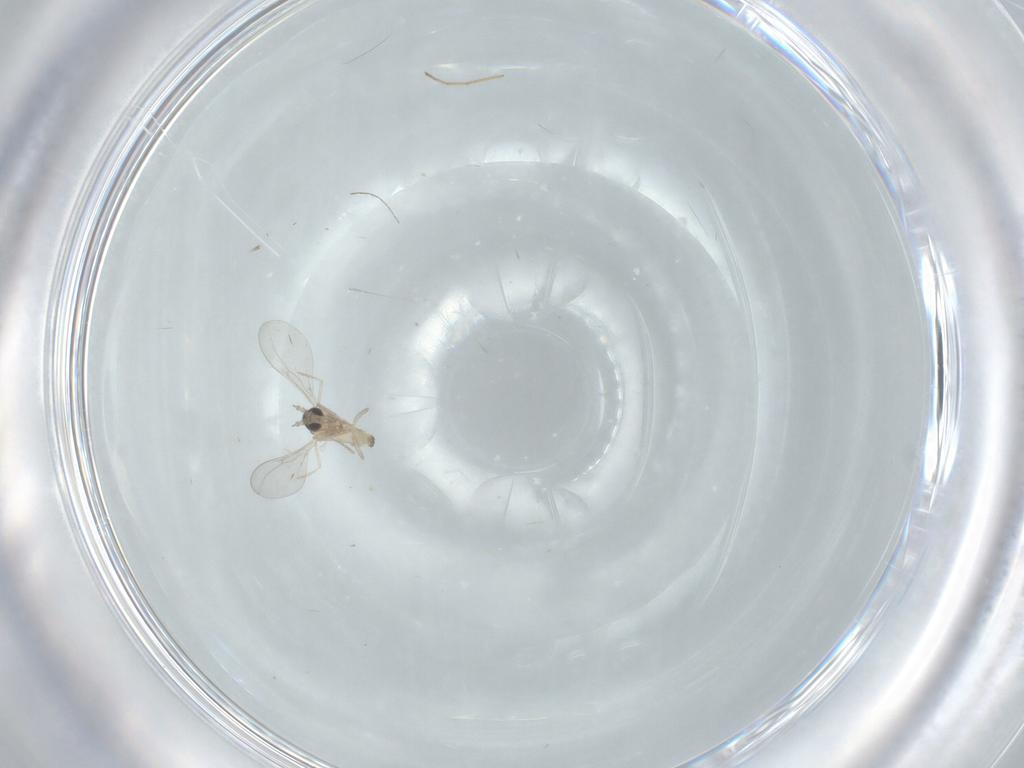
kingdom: Animalia
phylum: Arthropoda
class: Insecta
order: Diptera
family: Cecidomyiidae
